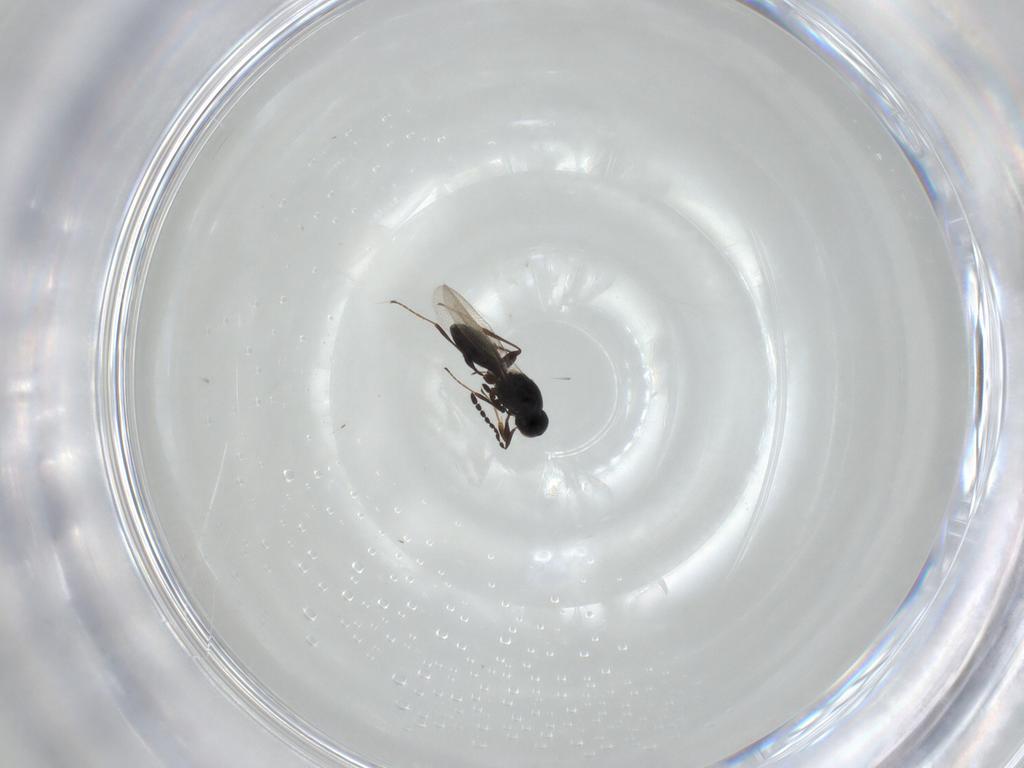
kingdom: Animalia
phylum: Arthropoda
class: Insecta
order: Hymenoptera
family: Platygastridae
